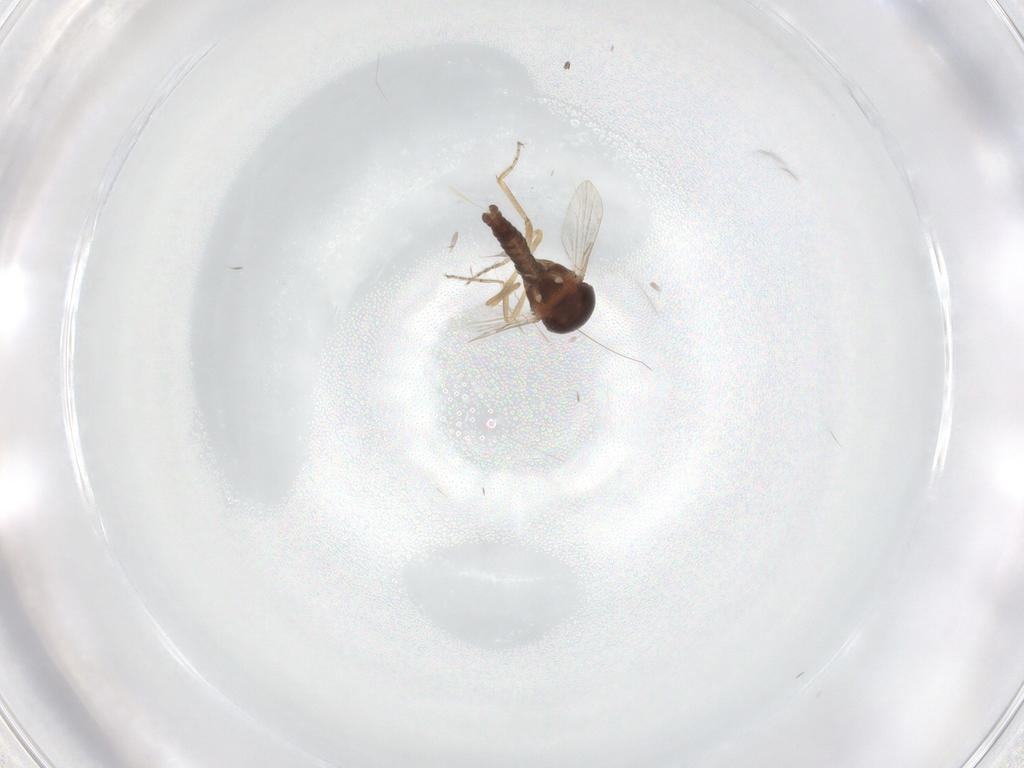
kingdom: Animalia
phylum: Arthropoda
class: Insecta
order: Diptera
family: Ceratopogonidae
